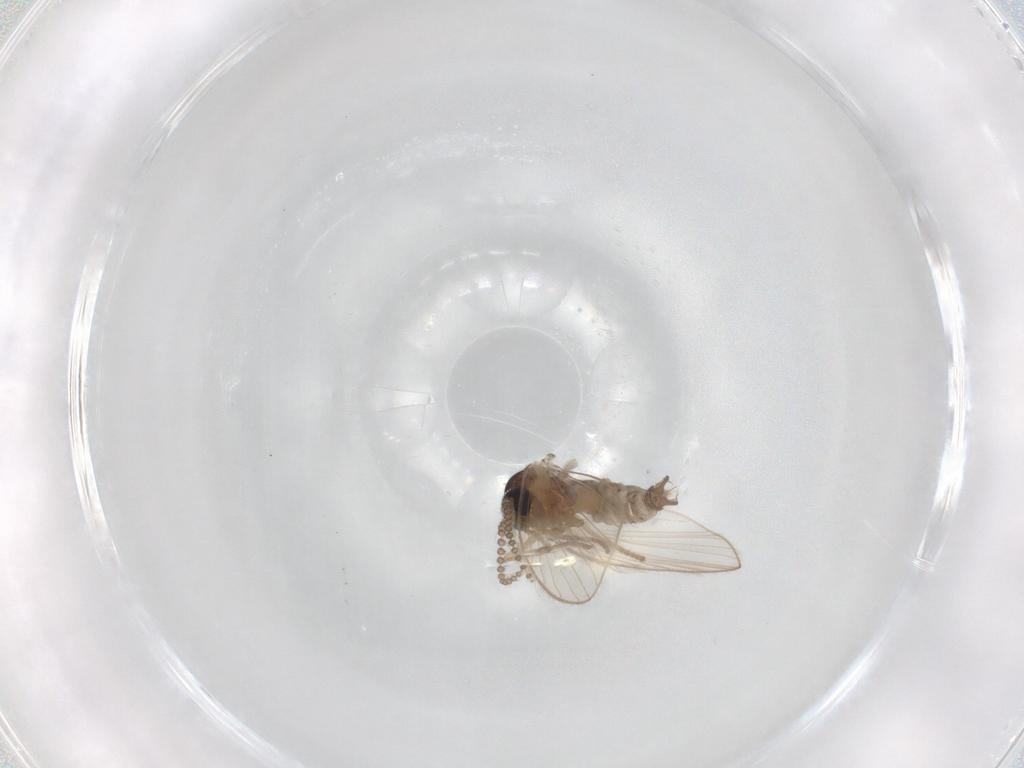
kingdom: Animalia
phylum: Arthropoda
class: Insecta
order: Diptera
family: Psychodidae
